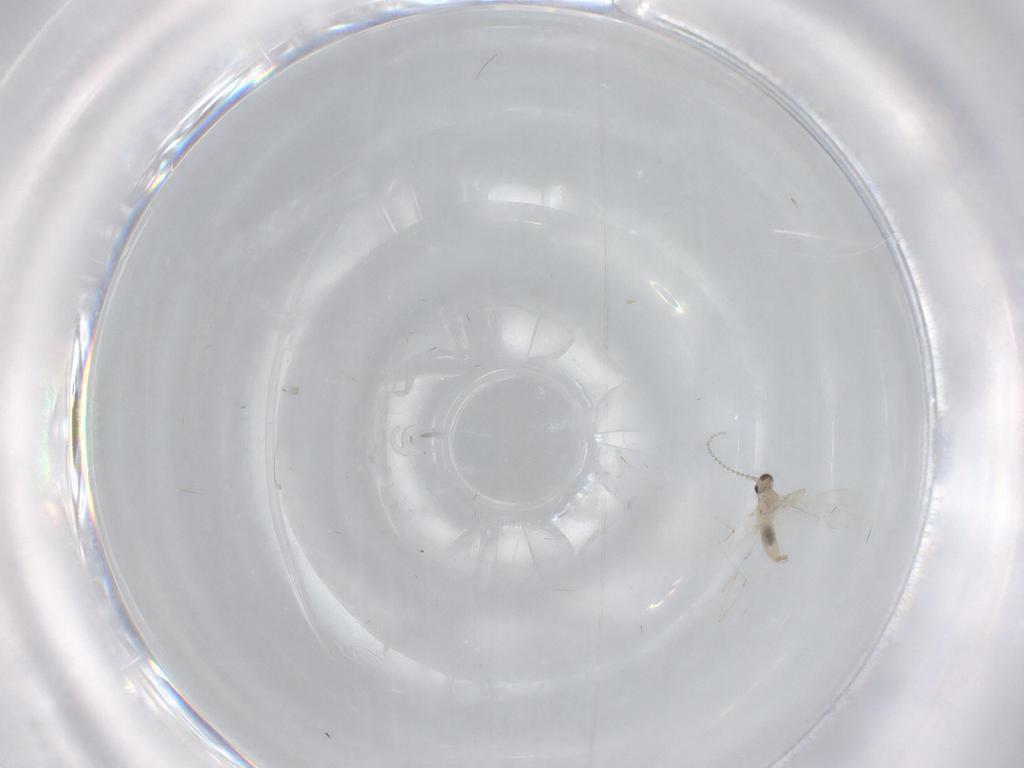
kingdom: Animalia
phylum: Arthropoda
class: Insecta
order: Diptera
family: Cecidomyiidae
